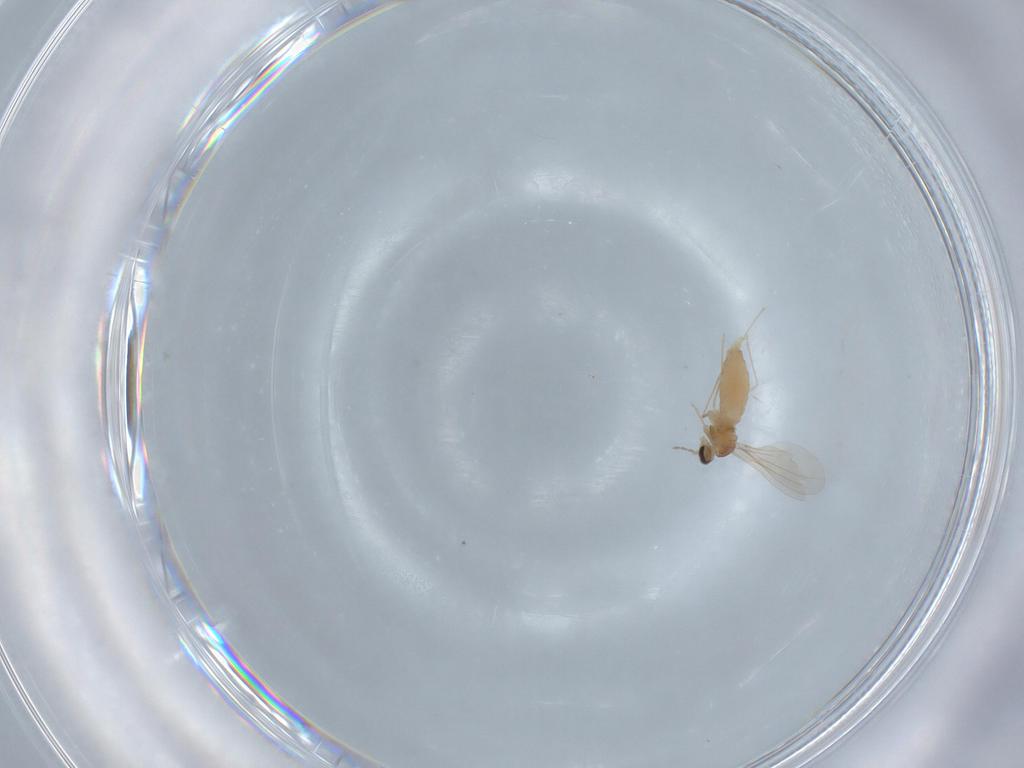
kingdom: Animalia
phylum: Arthropoda
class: Insecta
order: Diptera
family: Cecidomyiidae
